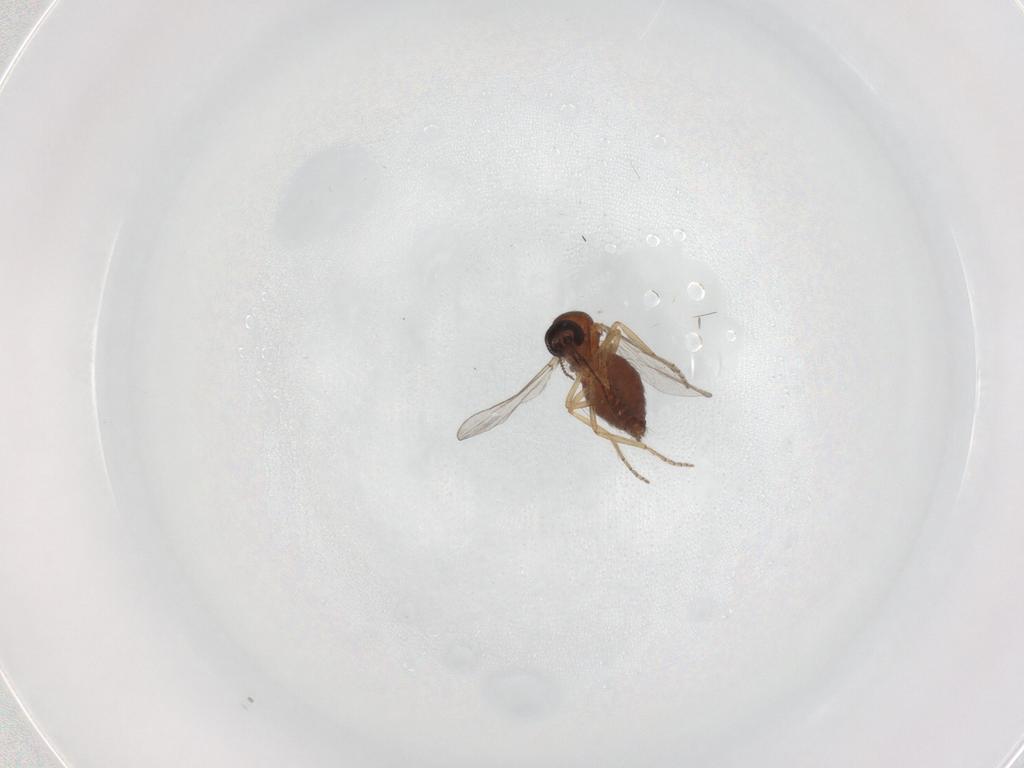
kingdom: Animalia
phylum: Arthropoda
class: Insecta
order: Diptera
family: Ceratopogonidae
